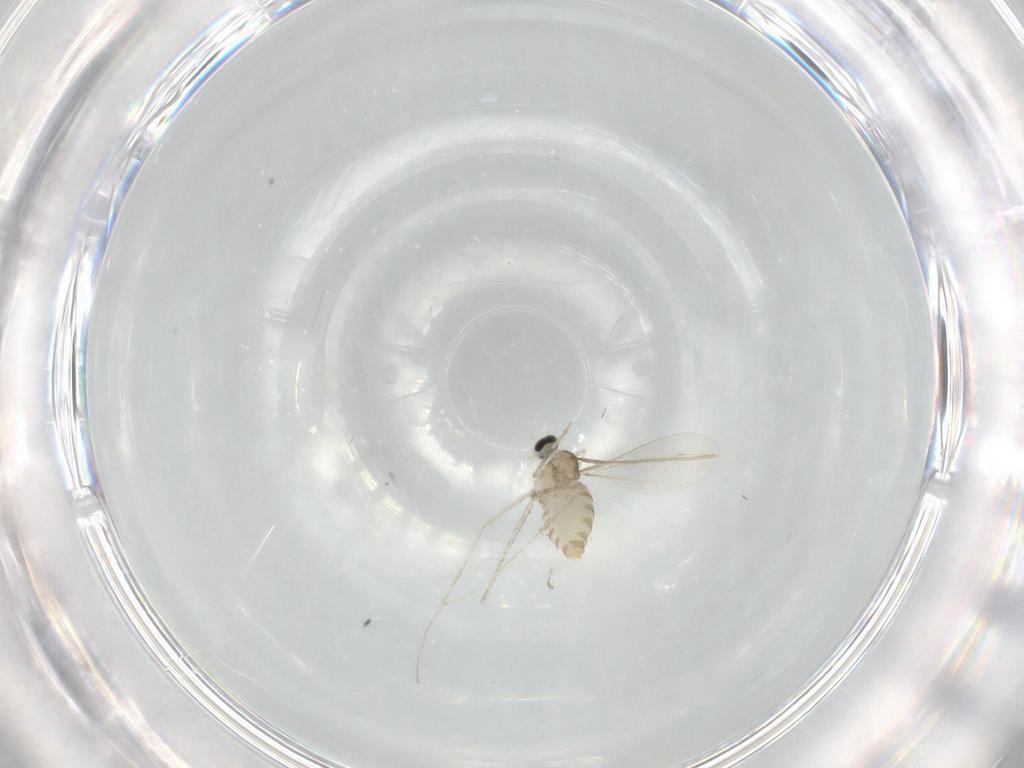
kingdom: Animalia
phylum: Arthropoda
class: Insecta
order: Diptera
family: Cecidomyiidae
